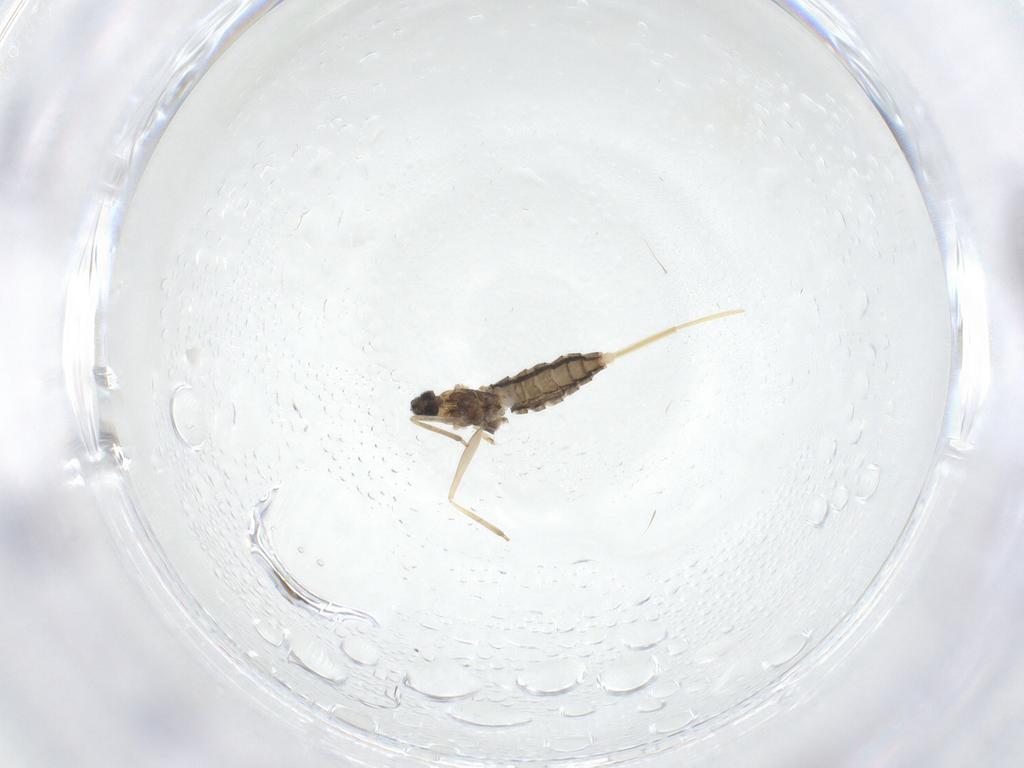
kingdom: Animalia
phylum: Arthropoda
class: Insecta
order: Diptera
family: Cecidomyiidae
